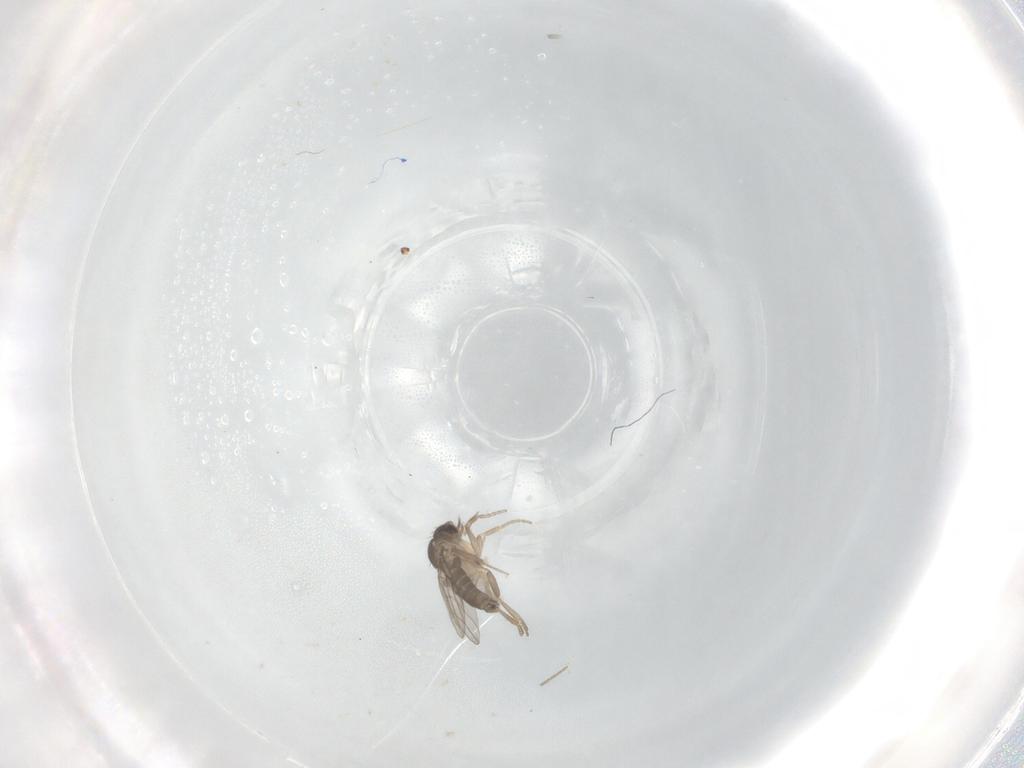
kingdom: Animalia
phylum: Arthropoda
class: Insecta
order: Diptera
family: Phoridae
